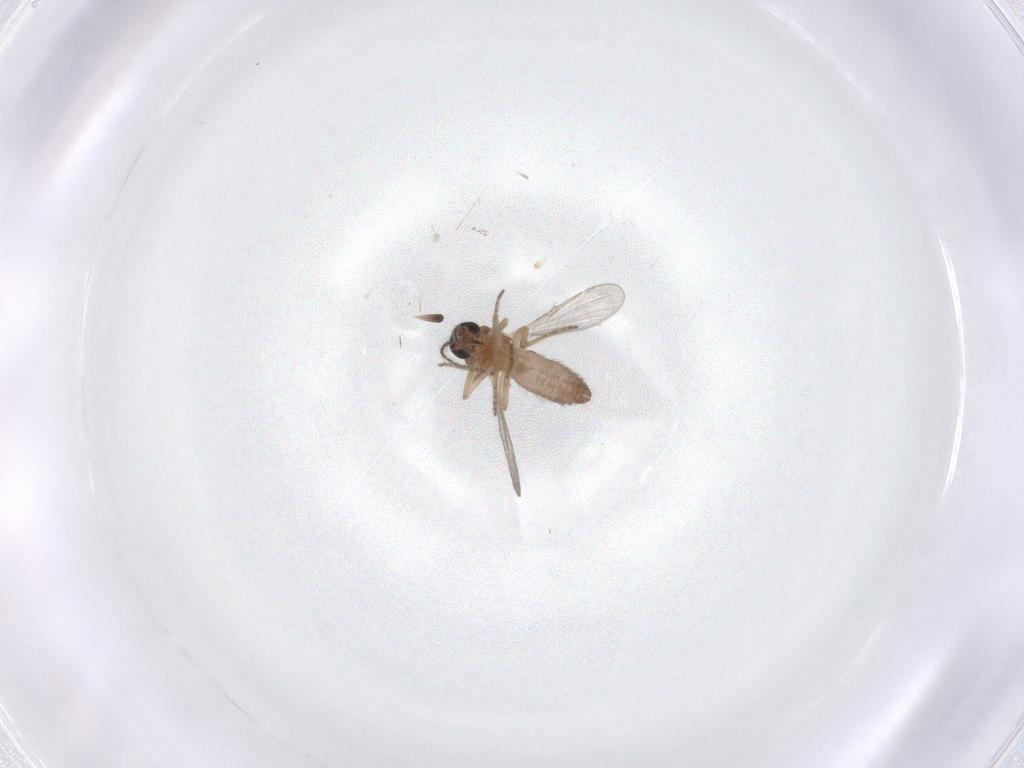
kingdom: Animalia
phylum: Arthropoda
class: Insecta
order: Diptera
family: Ceratopogonidae
